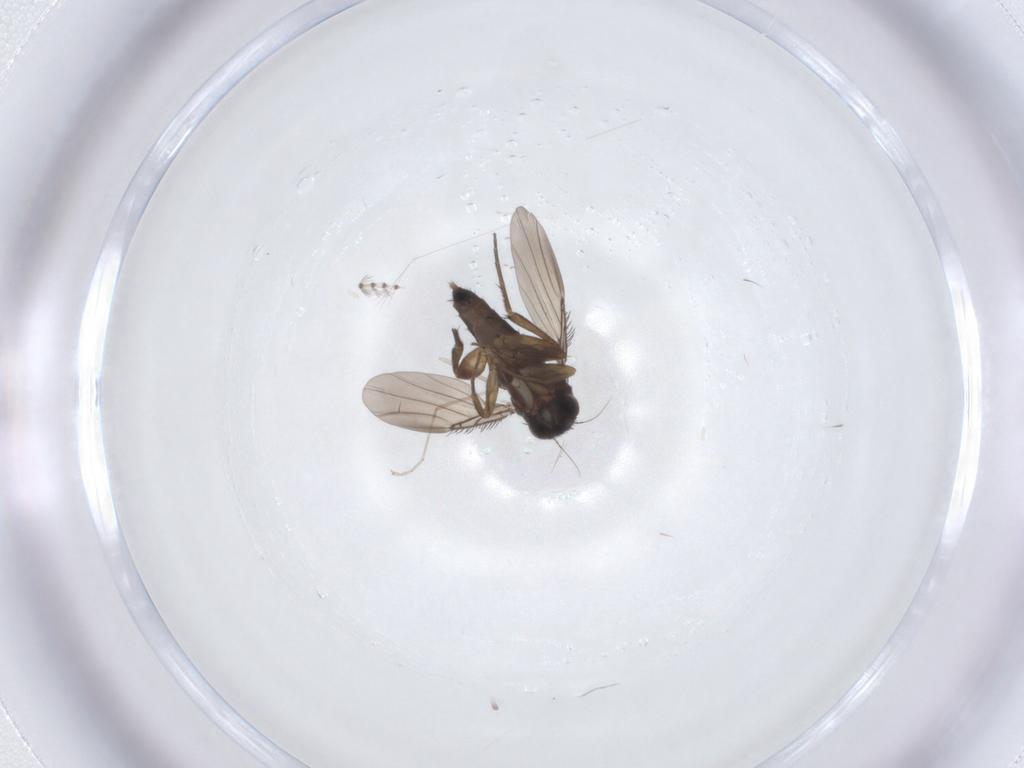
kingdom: Animalia
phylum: Arthropoda
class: Insecta
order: Diptera
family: Phoridae
